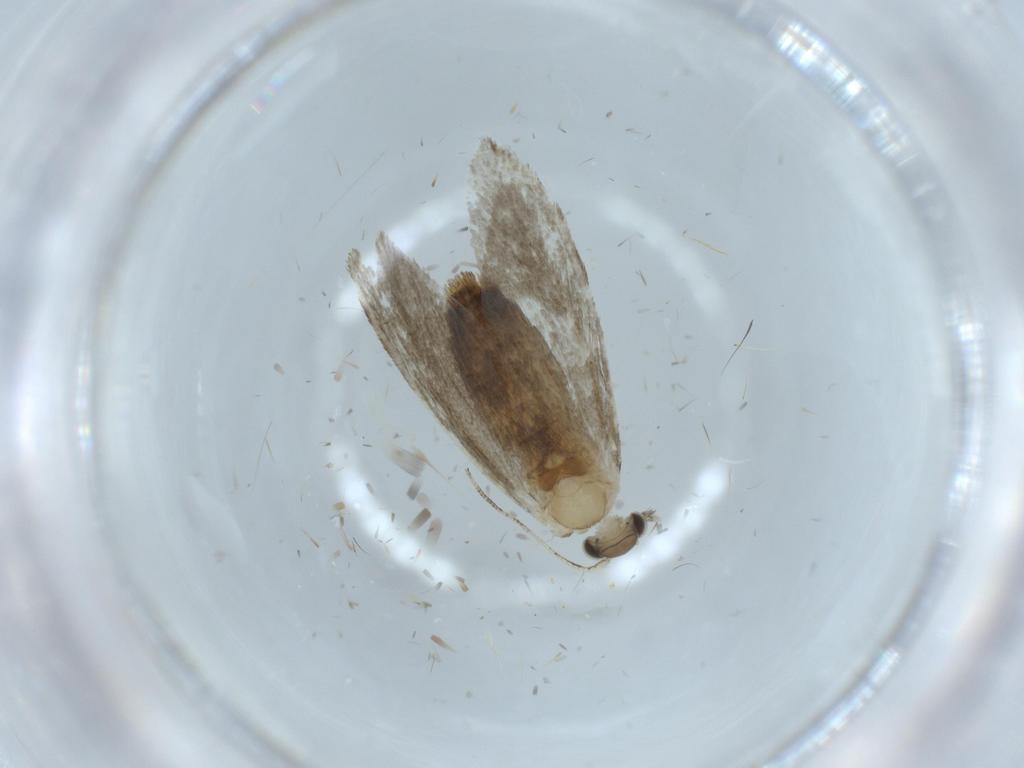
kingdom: Animalia
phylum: Arthropoda
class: Insecta
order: Lepidoptera
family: Tineidae
